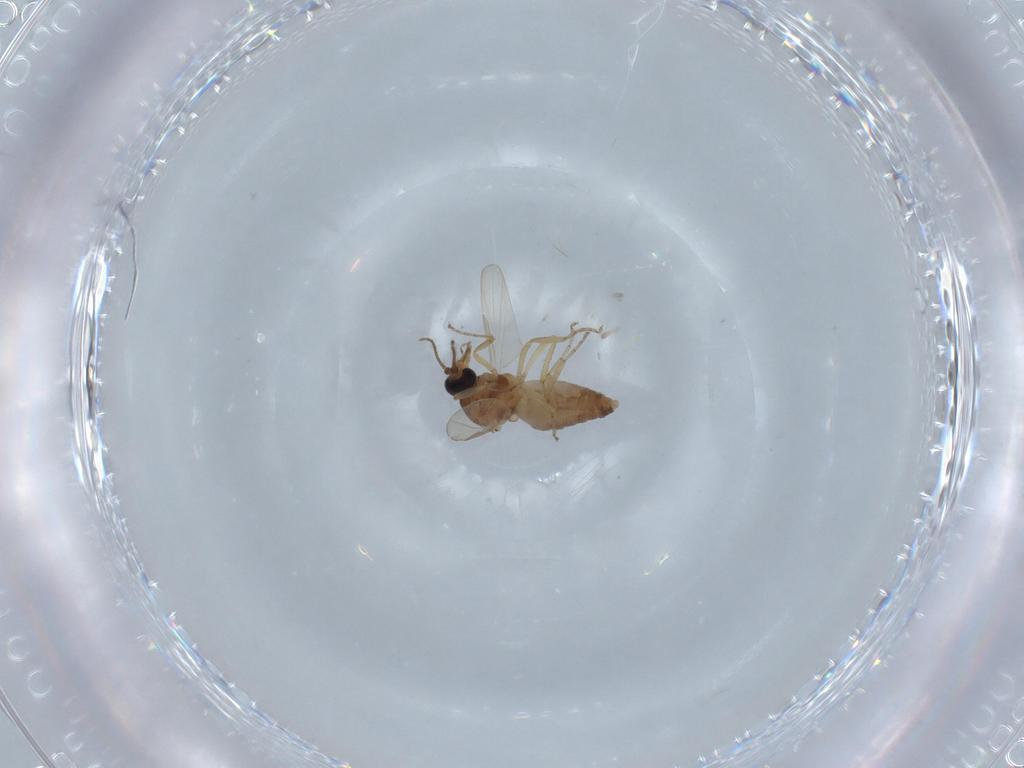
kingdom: Animalia
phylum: Arthropoda
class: Insecta
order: Diptera
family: Ceratopogonidae
